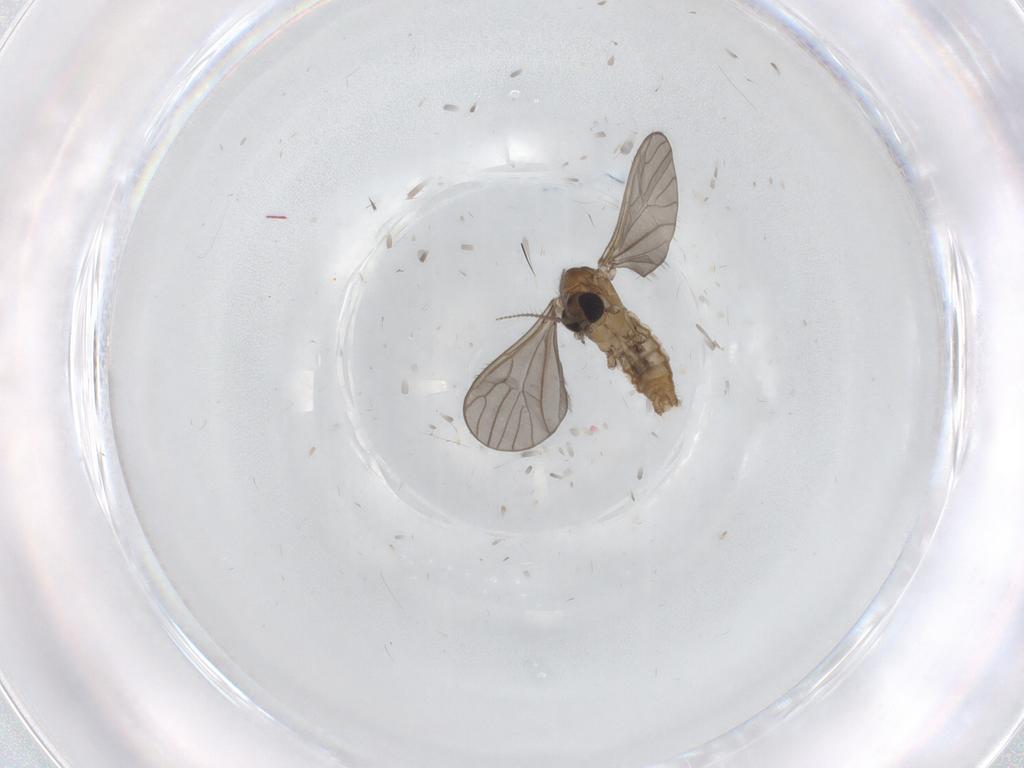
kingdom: Animalia
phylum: Arthropoda
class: Insecta
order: Diptera
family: Limoniidae
